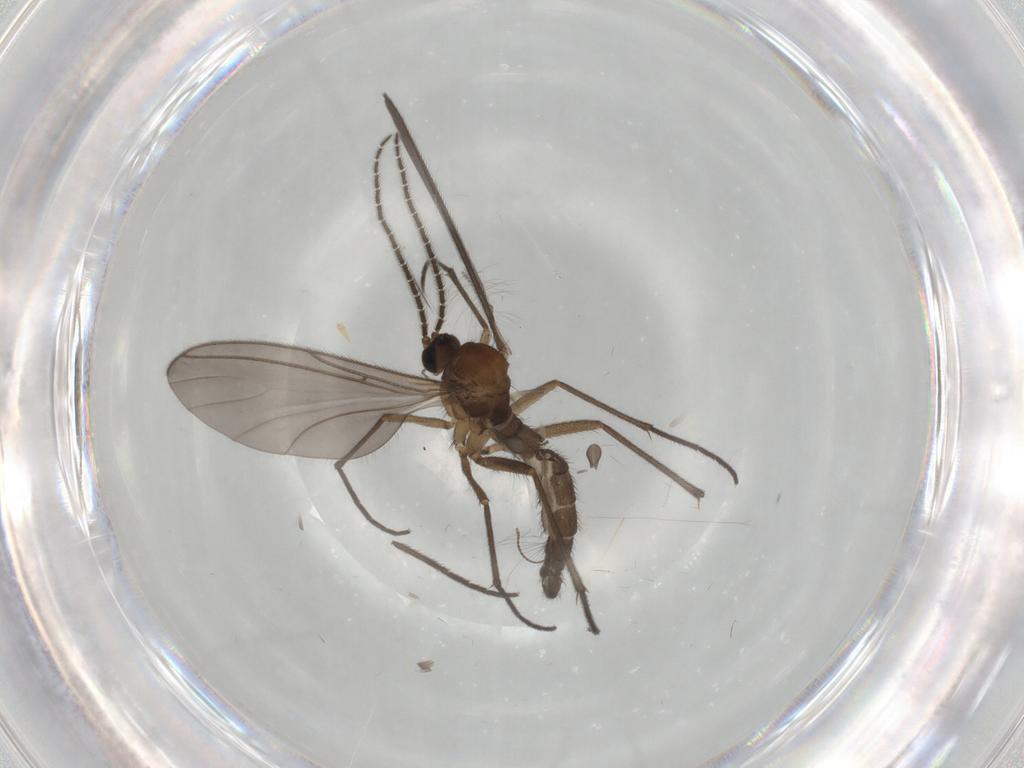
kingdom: Animalia
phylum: Arthropoda
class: Insecta
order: Diptera
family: Sciaridae
